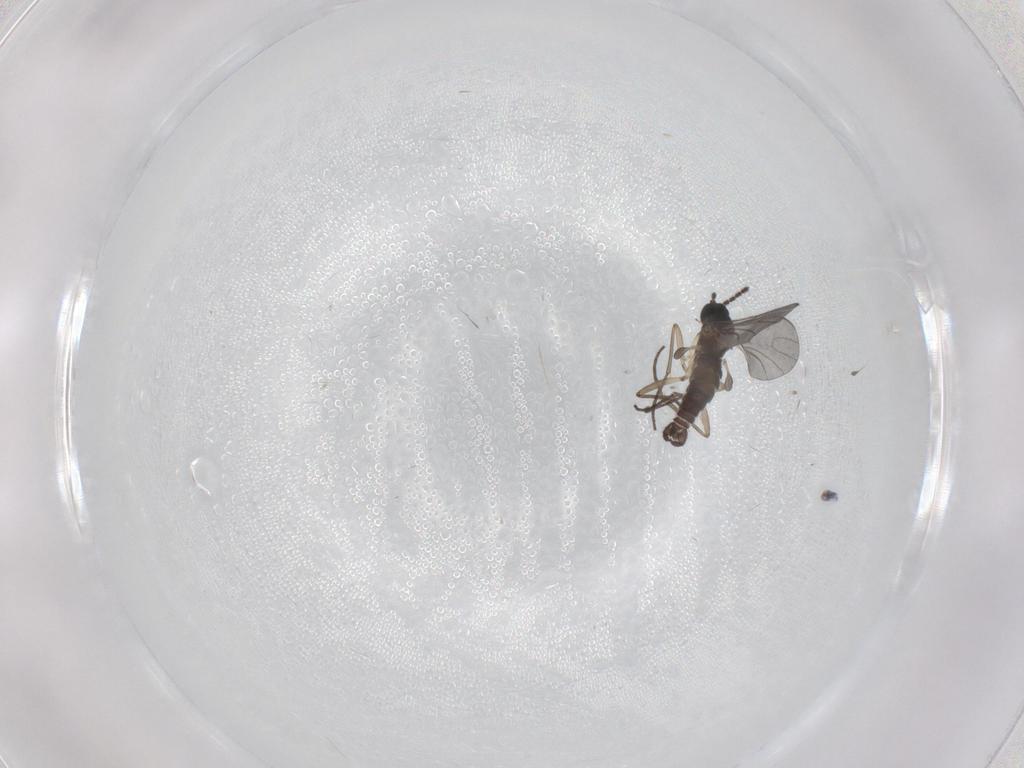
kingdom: Animalia
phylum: Arthropoda
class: Insecta
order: Diptera
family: Sciaridae
